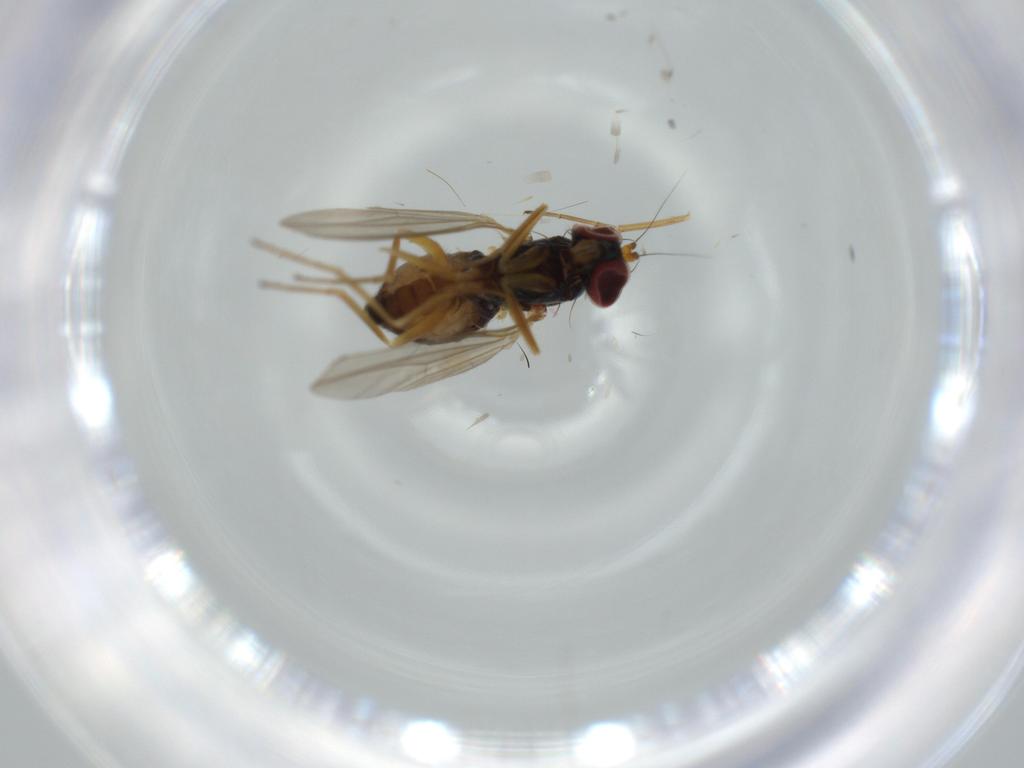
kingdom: Animalia
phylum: Arthropoda
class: Insecta
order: Diptera
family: Dolichopodidae
